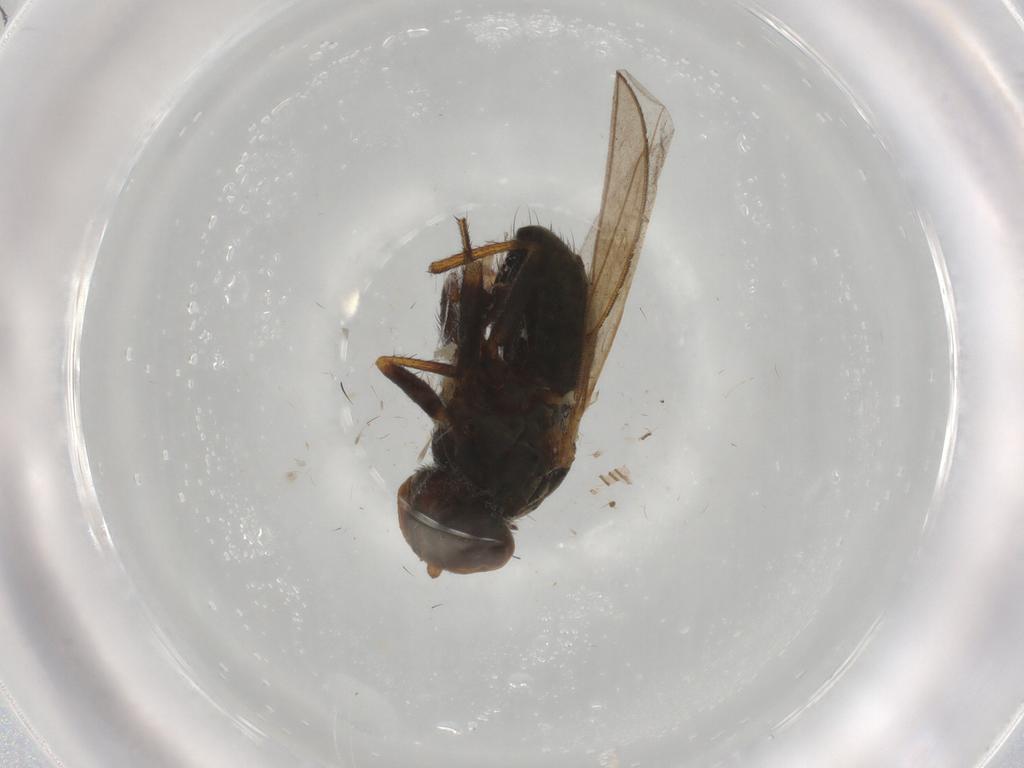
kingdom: Animalia
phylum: Arthropoda
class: Insecta
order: Diptera
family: Ephydridae
